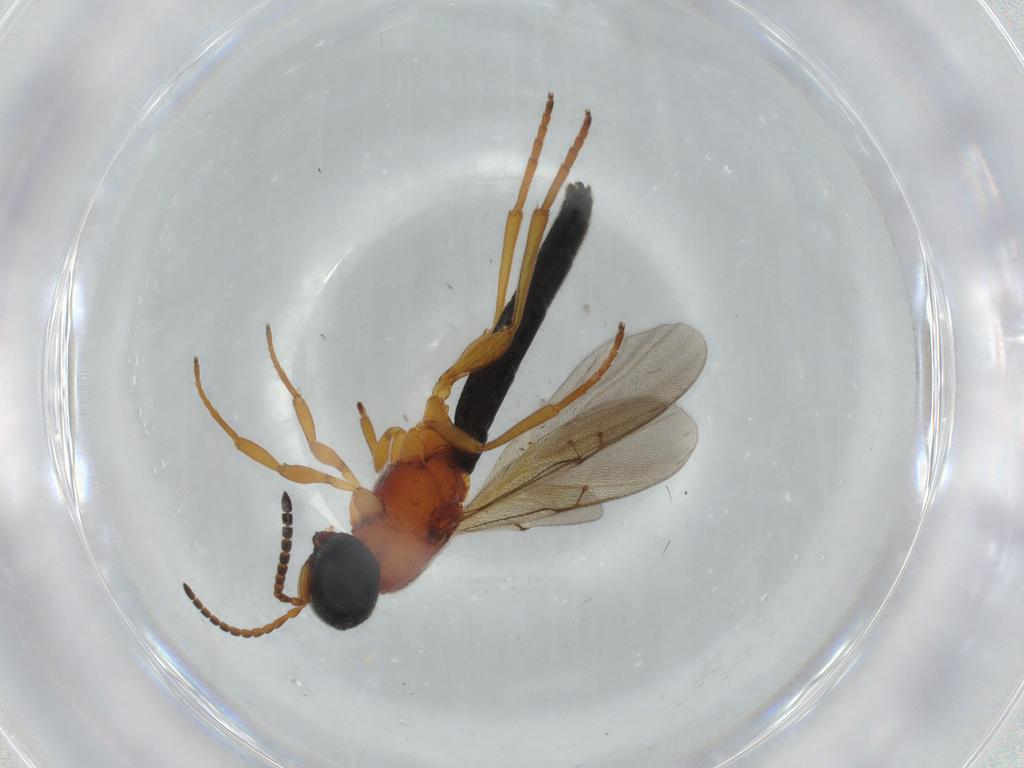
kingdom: Animalia
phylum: Arthropoda
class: Insecta
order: Hymenoptera
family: Scelionidae
